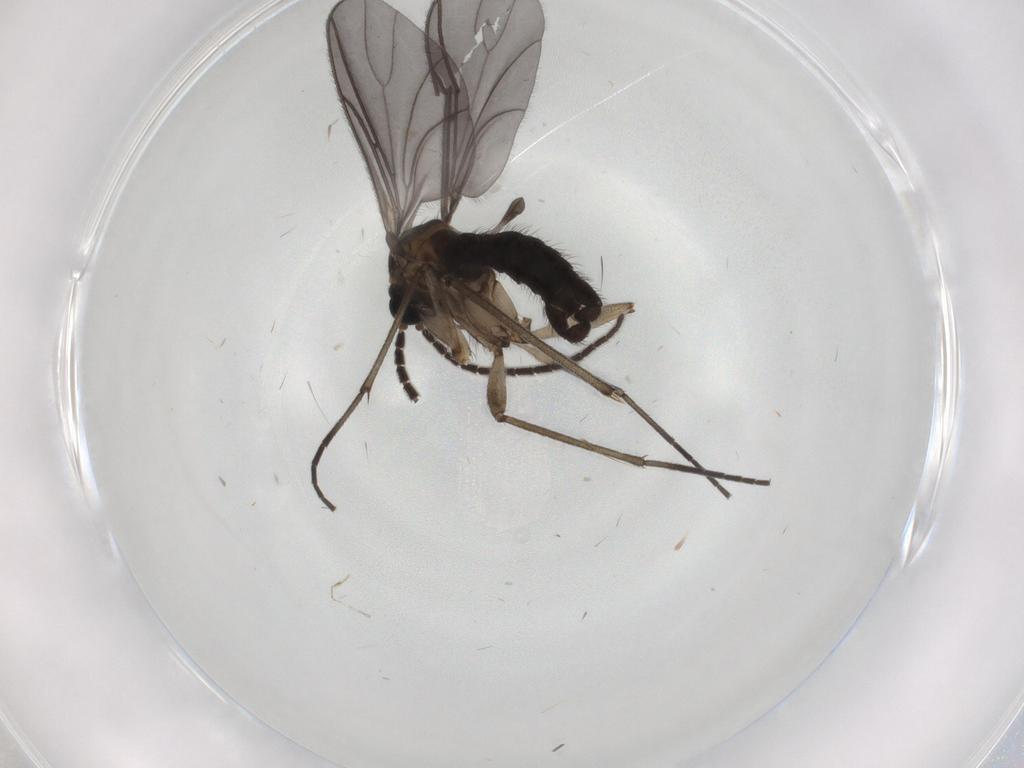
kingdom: Animalia
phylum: Arthropoda
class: Insecta
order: Diptera
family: Sciaridae
